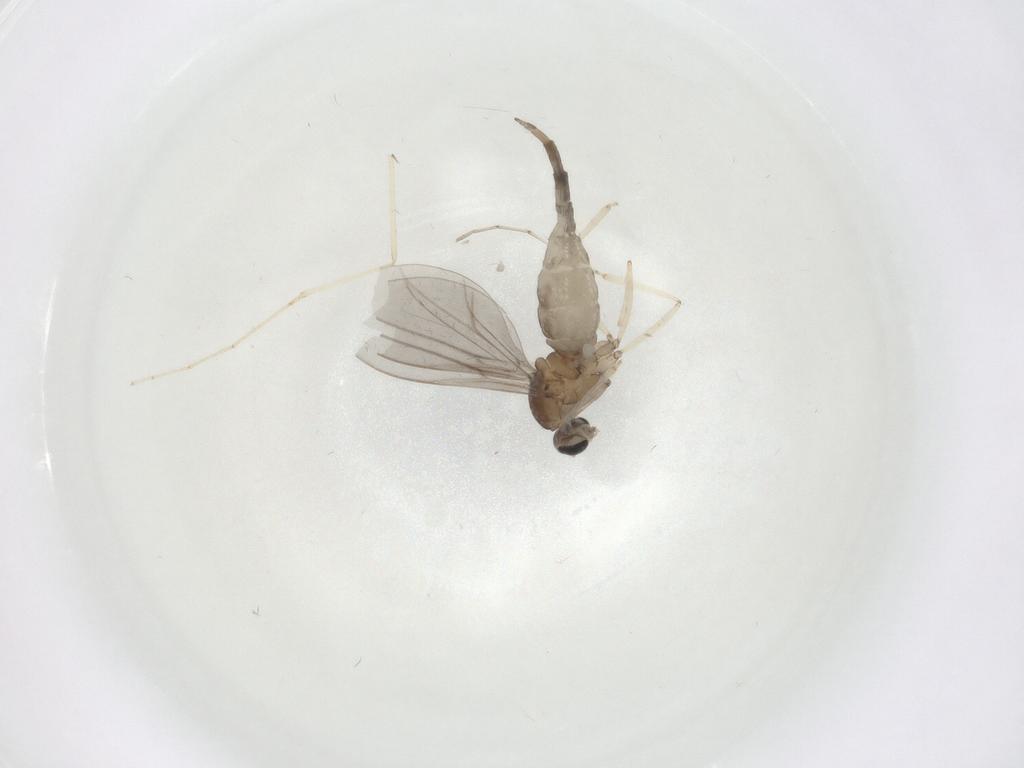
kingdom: Animalia
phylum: Arthropoda
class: Insecta
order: Diptera
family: Cecidomyiidae
